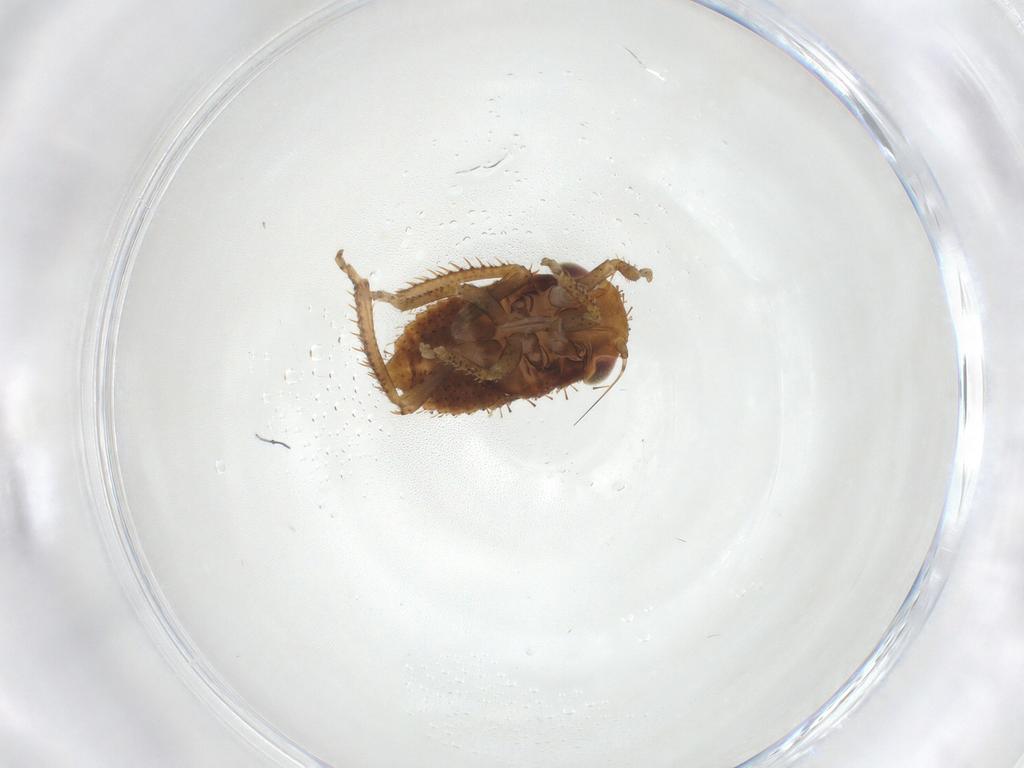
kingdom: Animalia
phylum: Arthropoda
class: Insecta
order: Hemiptera
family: Cicadellidae
